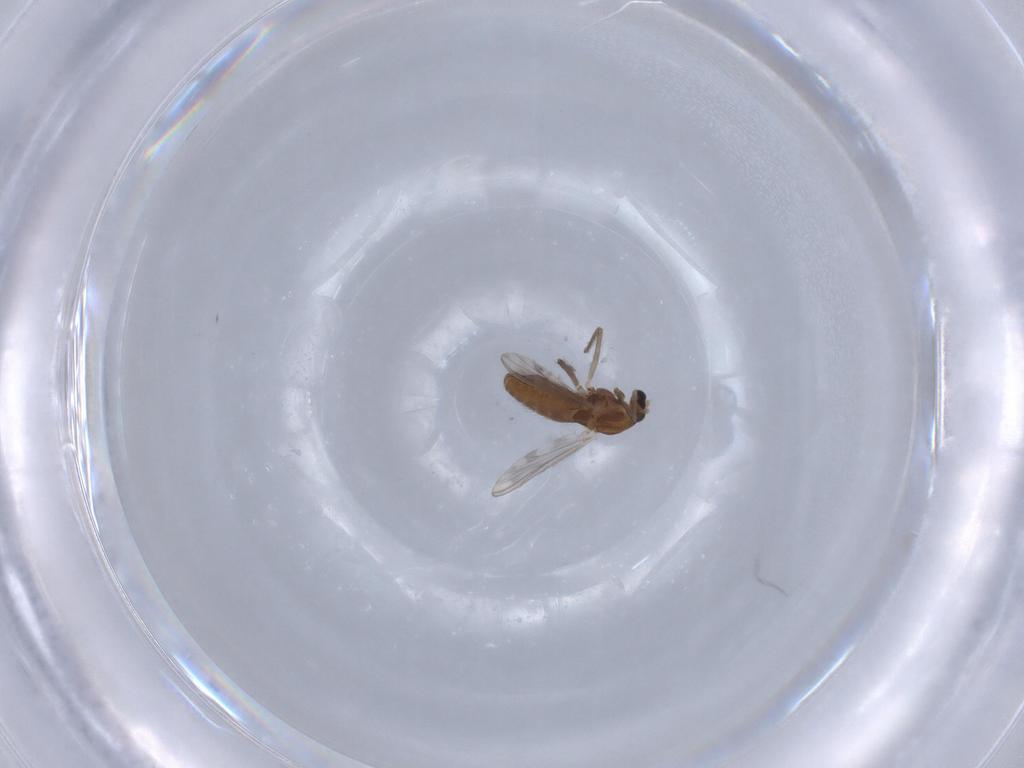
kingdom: Animalia
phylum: Arthropoda
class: Insecta
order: Diptera
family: Chironomidae
